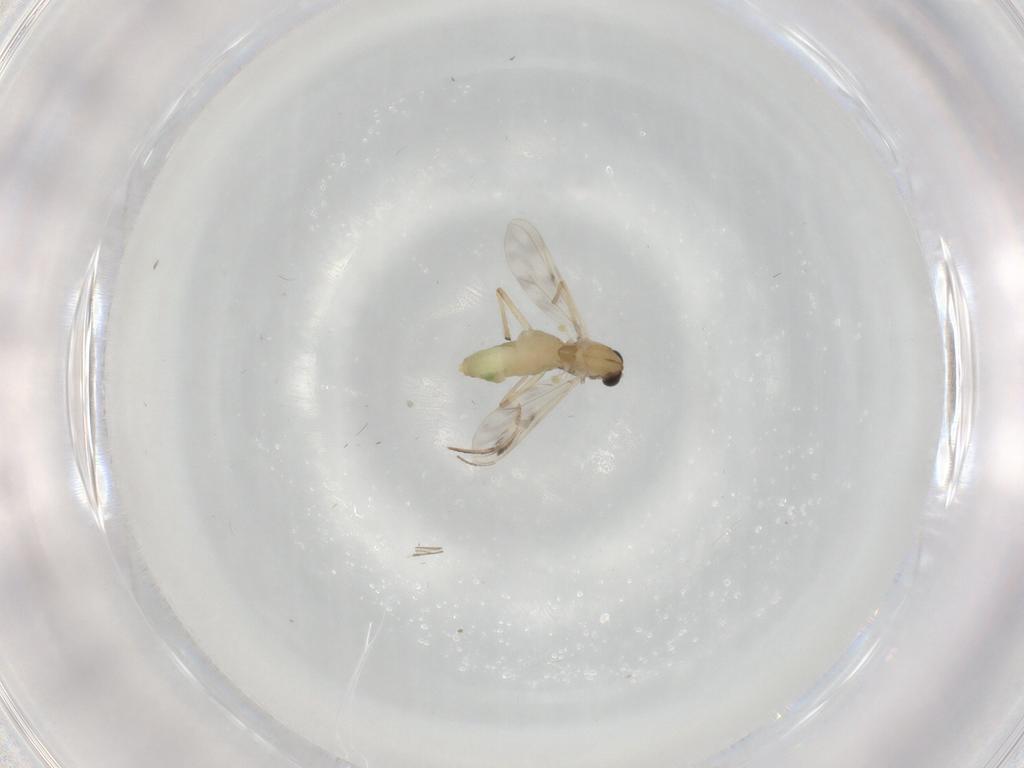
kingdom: Animalia
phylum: Arthropoda
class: Insecta
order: Diptera
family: Chironomidae
